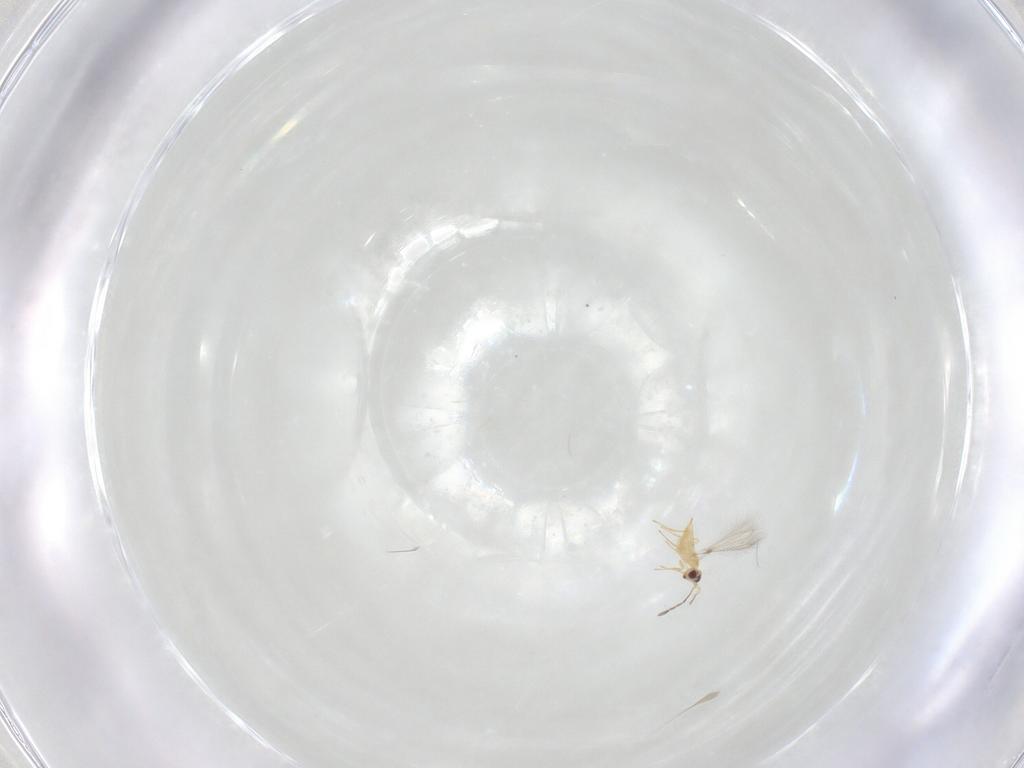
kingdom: Animalia
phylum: Arthropoda
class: Insecta
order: Hymenoptera
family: Mymaridae
